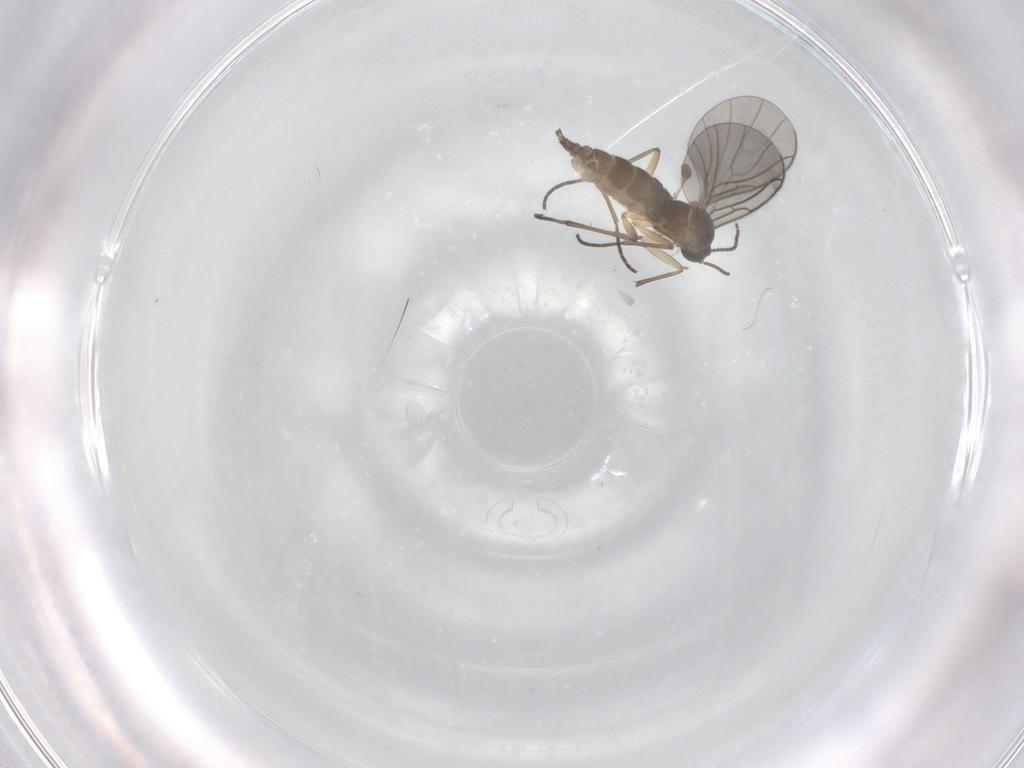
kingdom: Animalia
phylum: Arthropoda
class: Insecta
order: Diptera
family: Sciaridae
